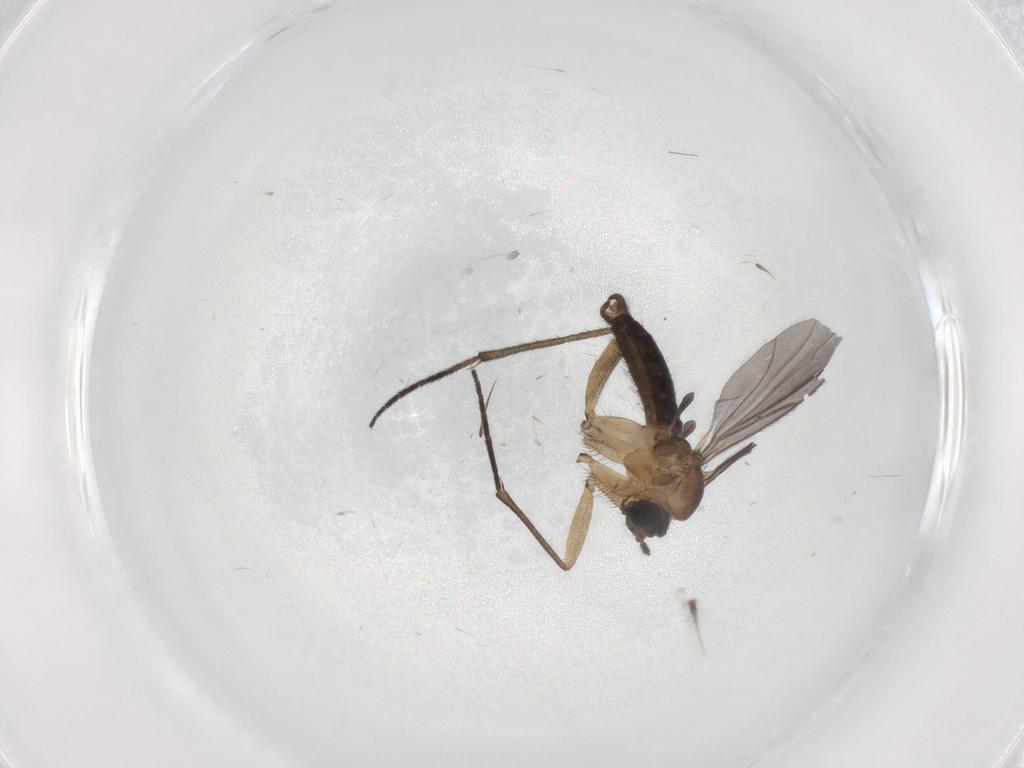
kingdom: Animalia
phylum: Arthropoda
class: Insecta
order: Diptera
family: Sciaridae
